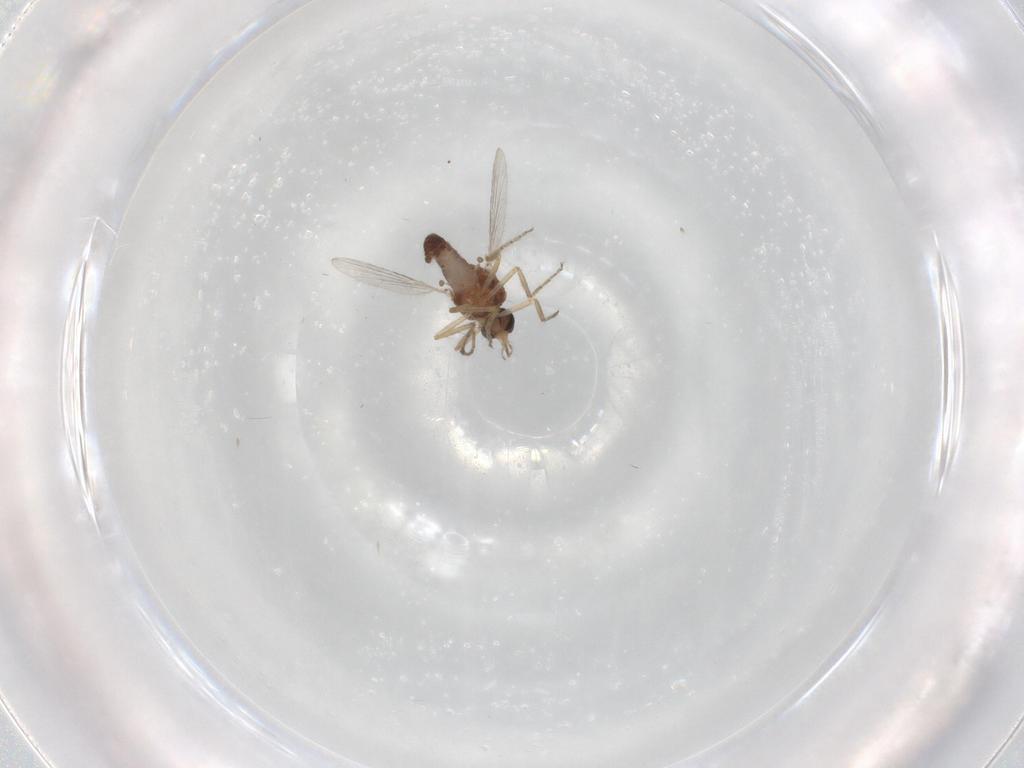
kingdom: Animalia
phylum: Arthropoda
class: Insecta
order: Diptera
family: Ceratopogonidae
